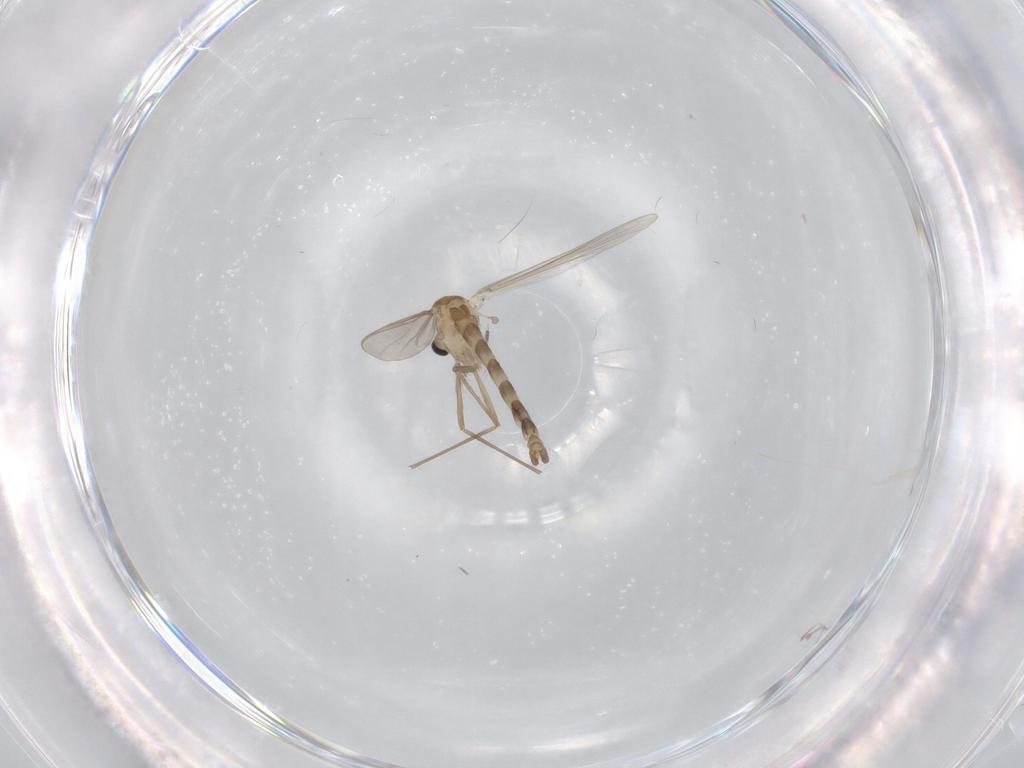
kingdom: Animalia
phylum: Arthropoda
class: Insecta
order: Diptera
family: Chironomidae
